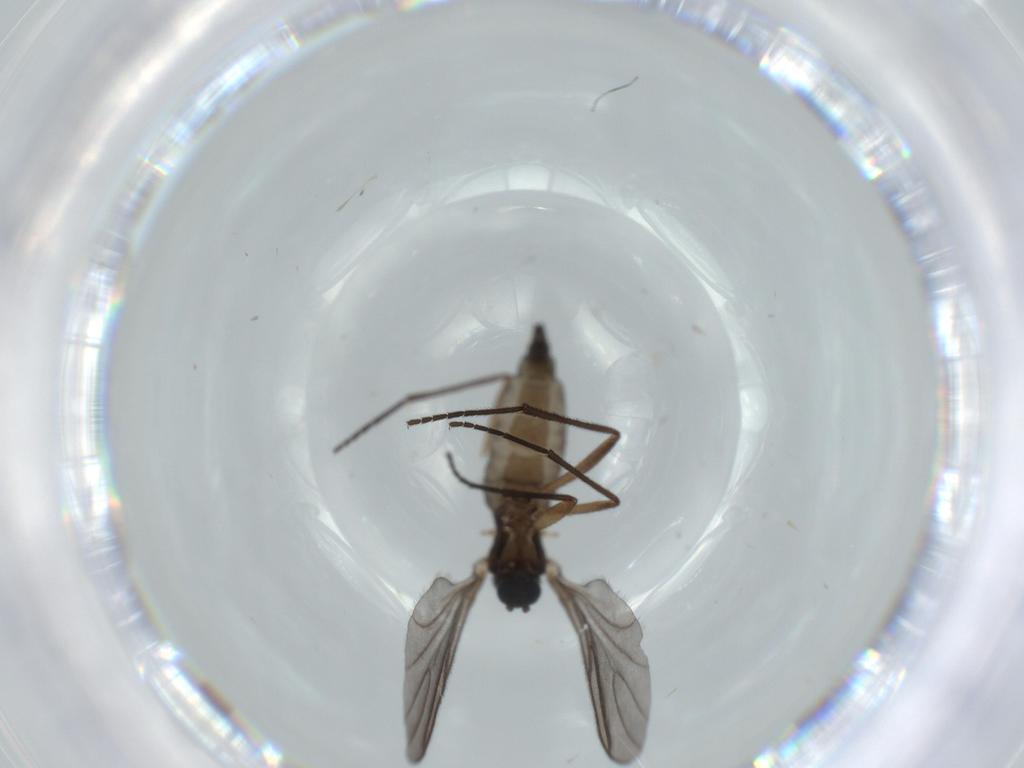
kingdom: Animalia
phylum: Arthropoda
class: Insecta
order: Diptera
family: Sciaridae
